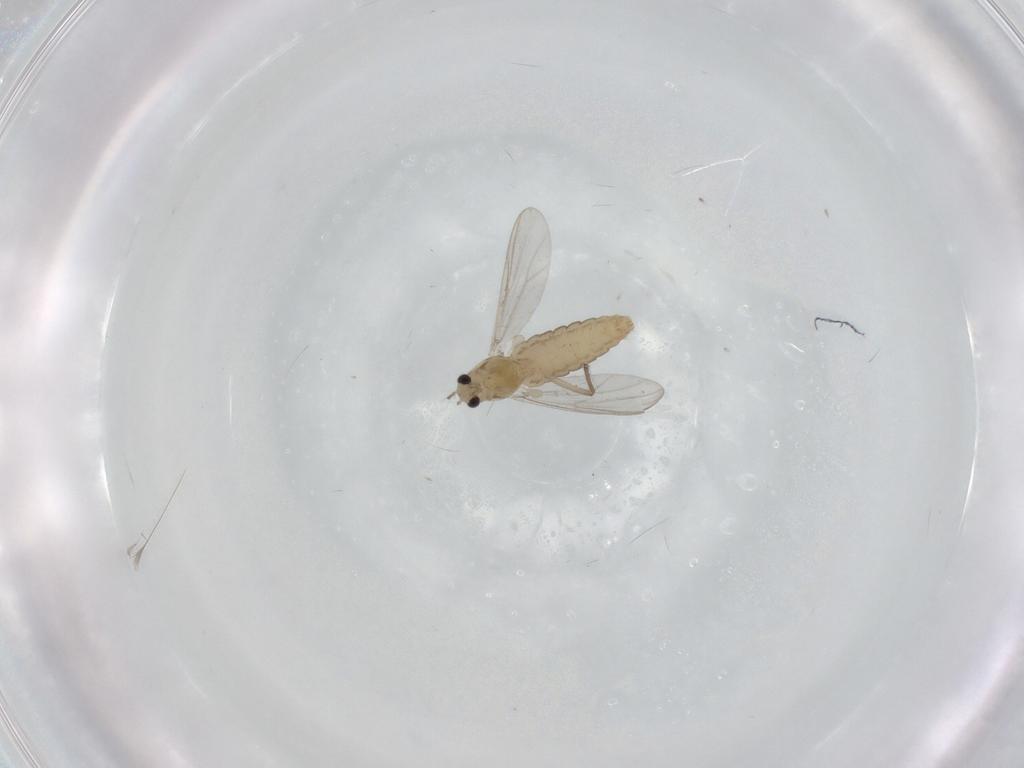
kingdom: Animalia
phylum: Arthropoda
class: Insecta
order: Diptera
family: Chironomidae
